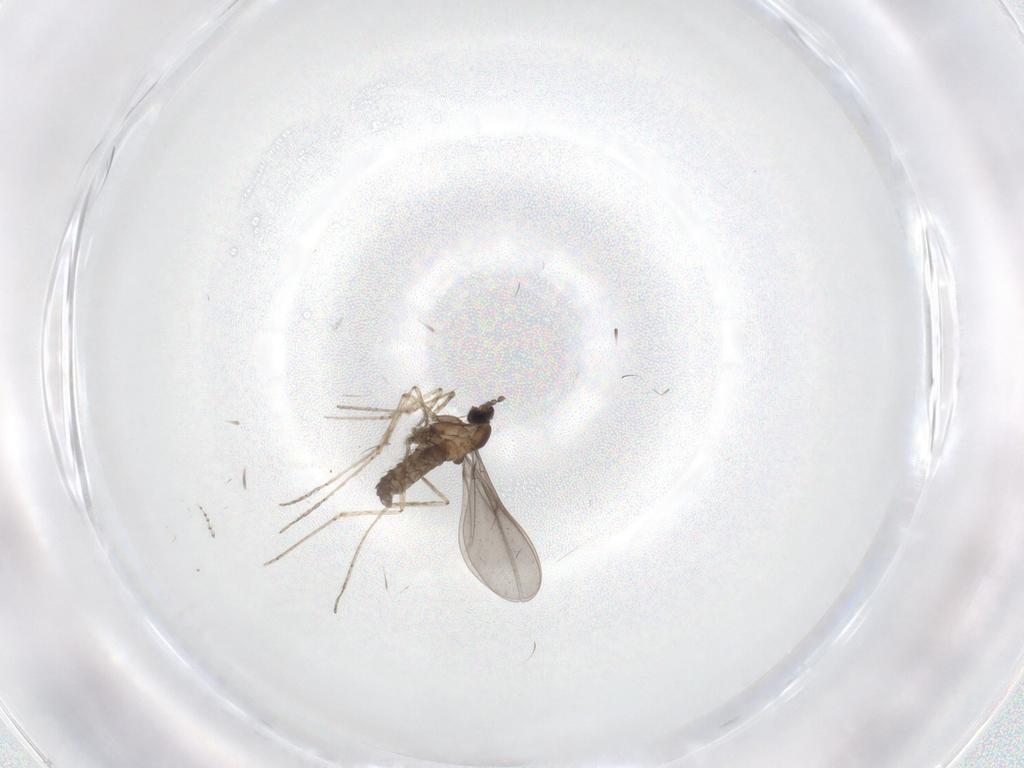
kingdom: Animalia
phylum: Arthropoda
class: Insecta
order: Diptera
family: Cecidomyiidae
